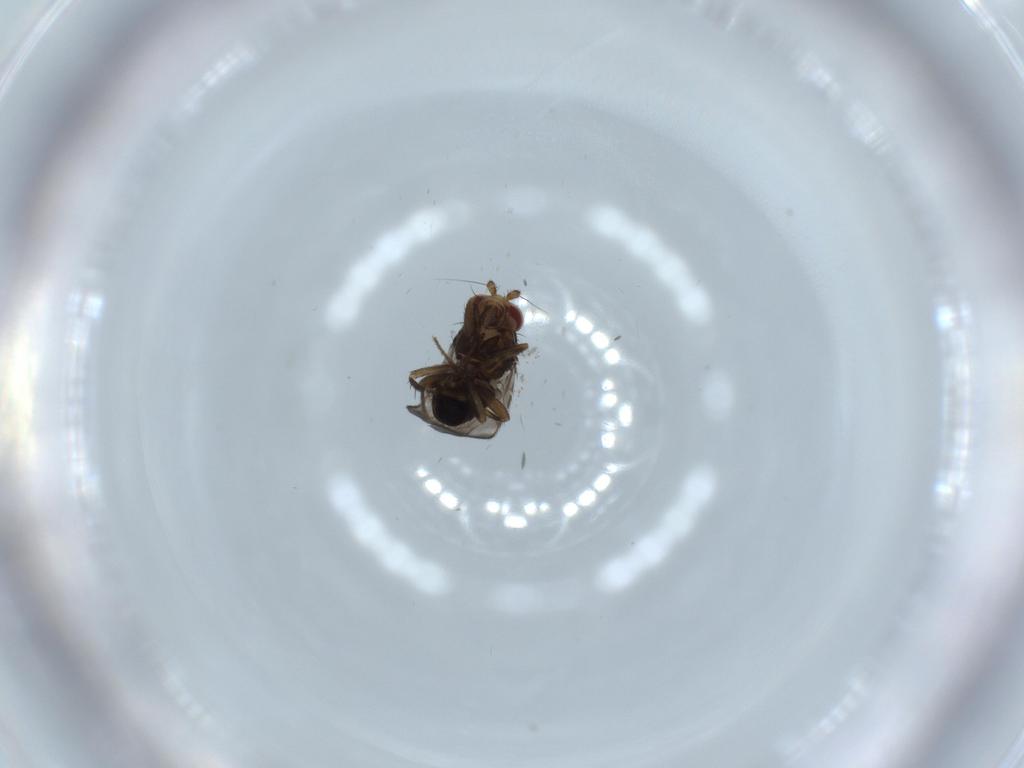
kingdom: Animalia
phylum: Arthropoda
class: Insecta
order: Diptera
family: Sphaeroceridae
